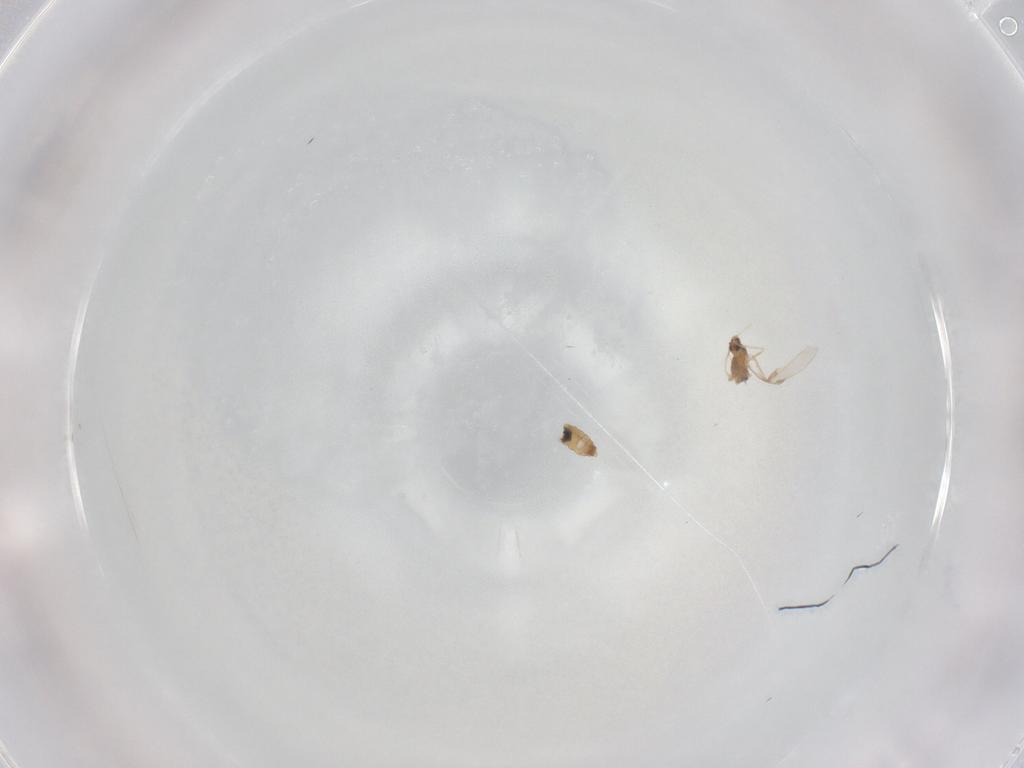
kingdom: Animalia
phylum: Arthropoda
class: Insecta
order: Diptera
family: Cecidomyiidae
